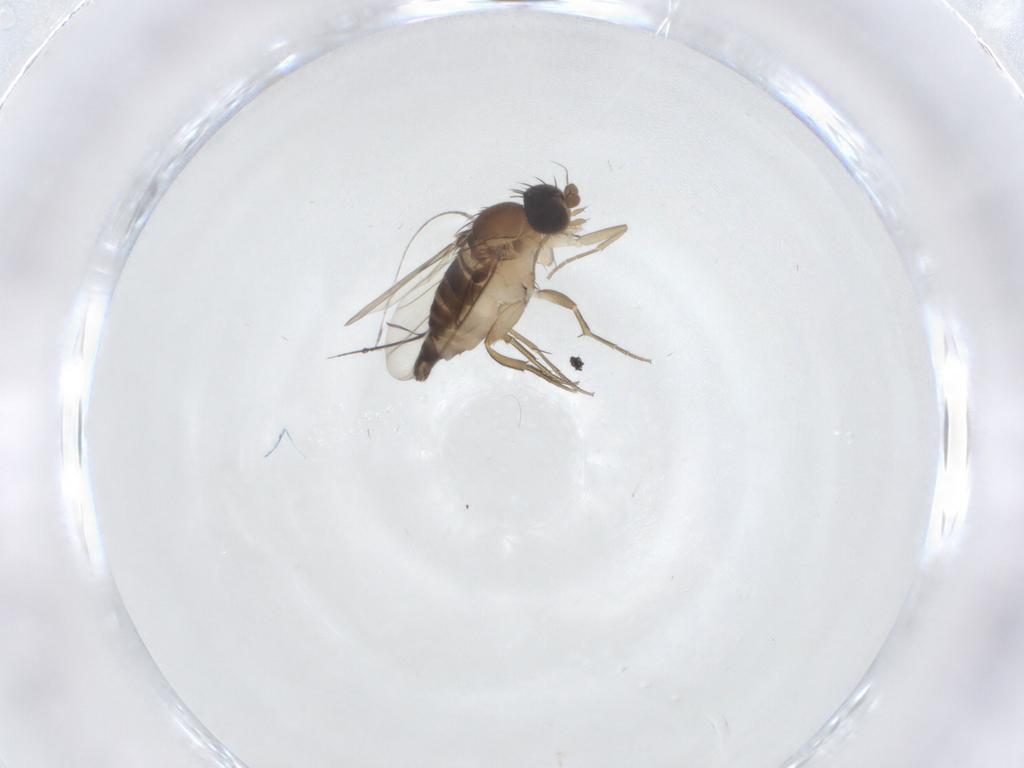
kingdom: Animalia
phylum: Arthropoda
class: Insecta
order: Diptera
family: Phoridae
